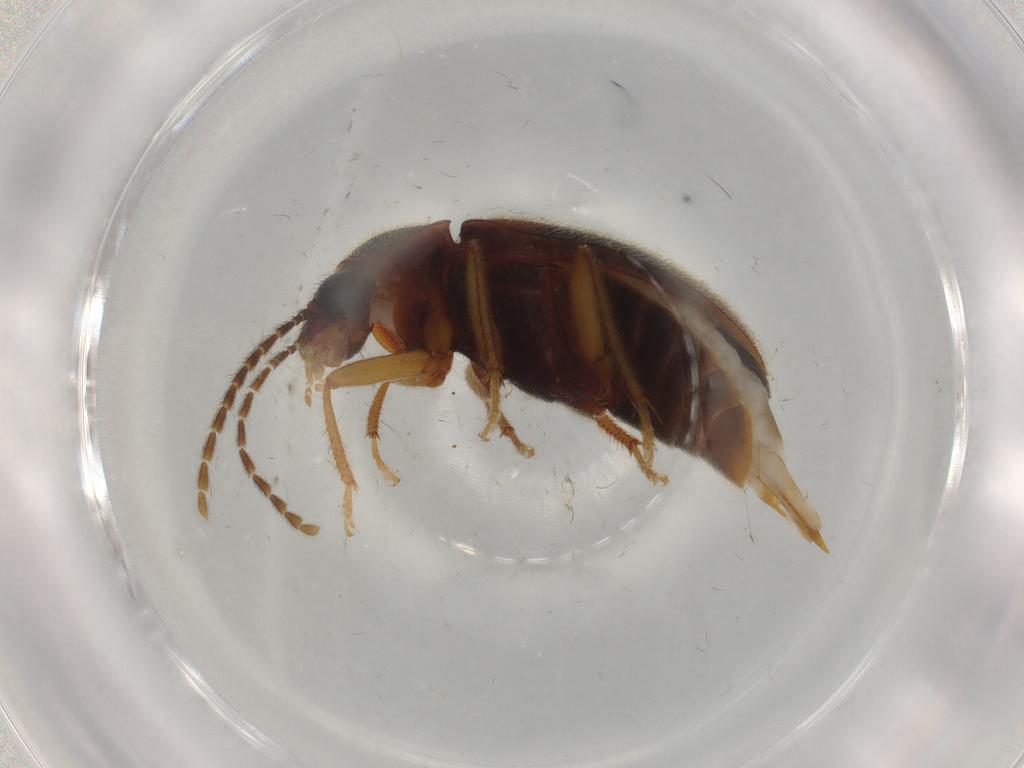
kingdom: Animalia
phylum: Arthropoda
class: Insecta
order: Coleoptera
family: Ptilodactylidae
